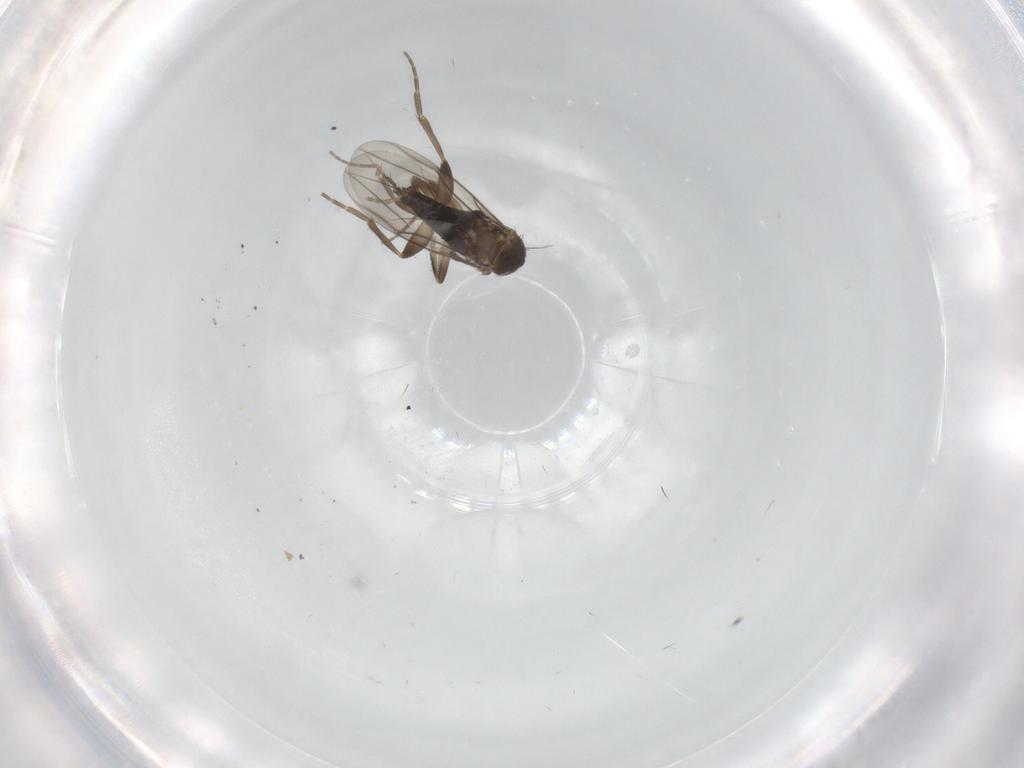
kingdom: Animalia
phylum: Arthropoda
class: Insecta
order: Diptera
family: Phoridae
